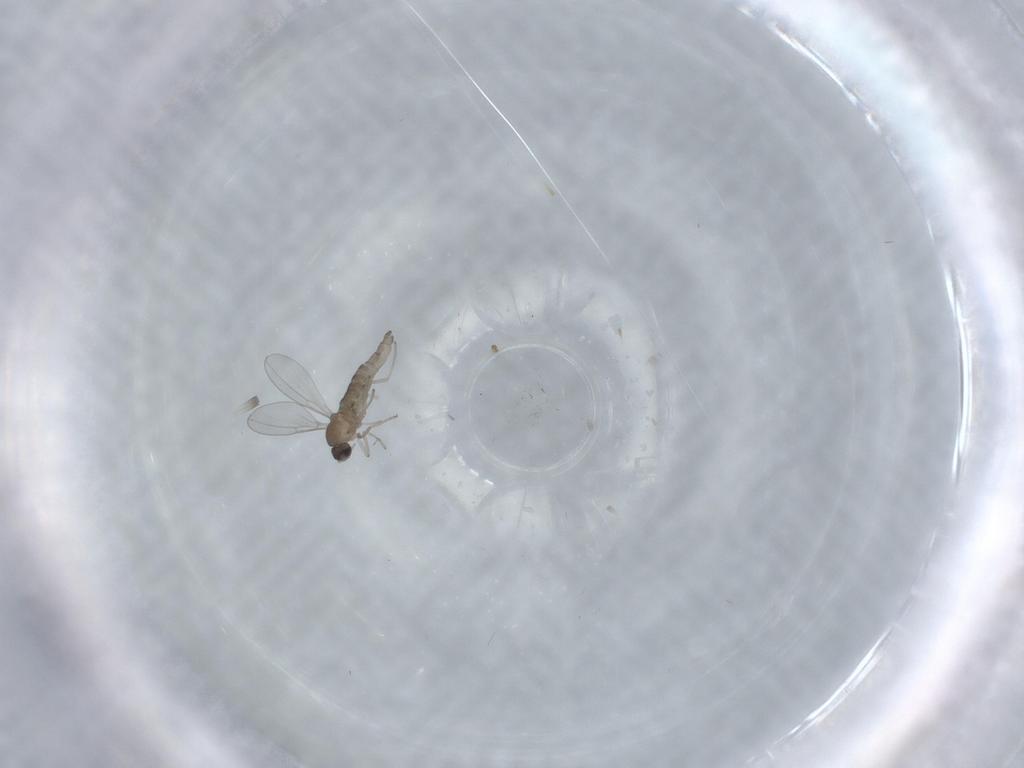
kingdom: Animalia
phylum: Arthropoda
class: Insecta
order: Diptera
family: Cecidomyiidae
